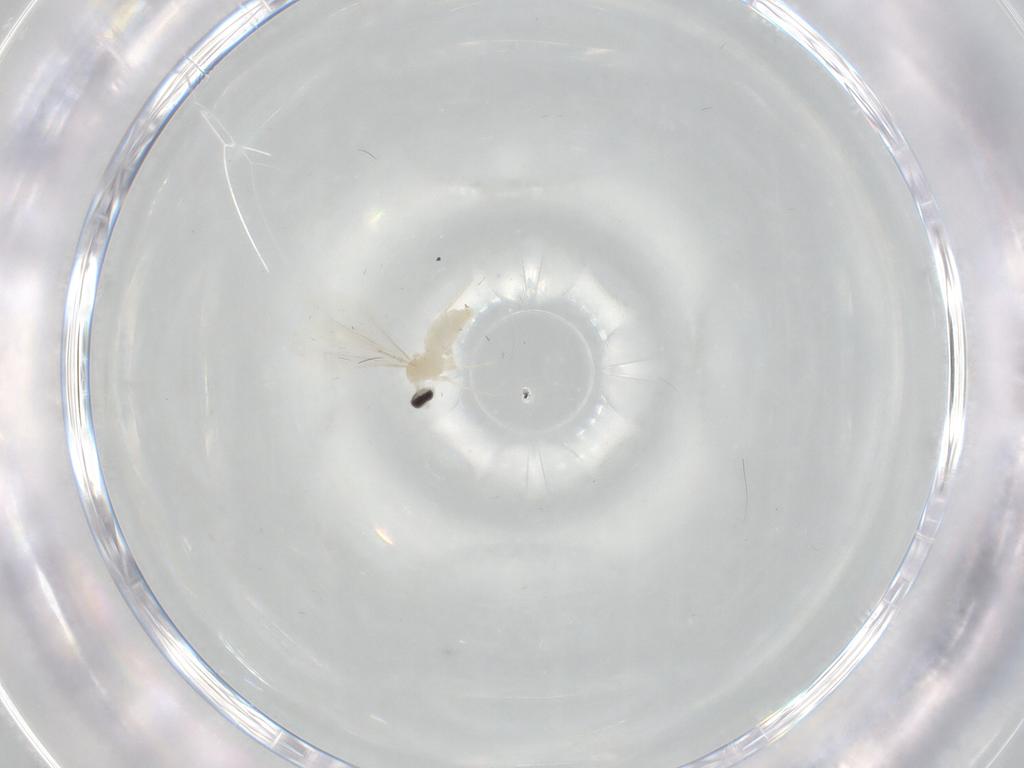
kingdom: Animalia
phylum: Arthropoda
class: Insecta
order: Diptera
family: Cecidomyiidae
